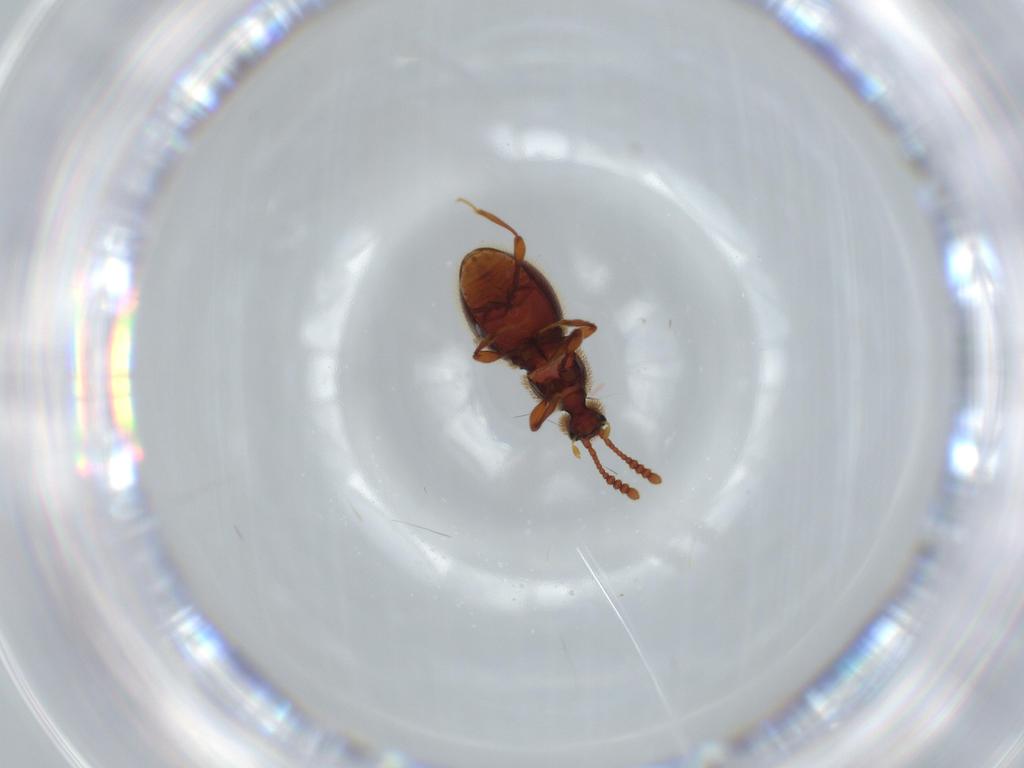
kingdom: Animalia
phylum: Arthropoda
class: Insecta
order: Coleoptera
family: Staphylinidae
